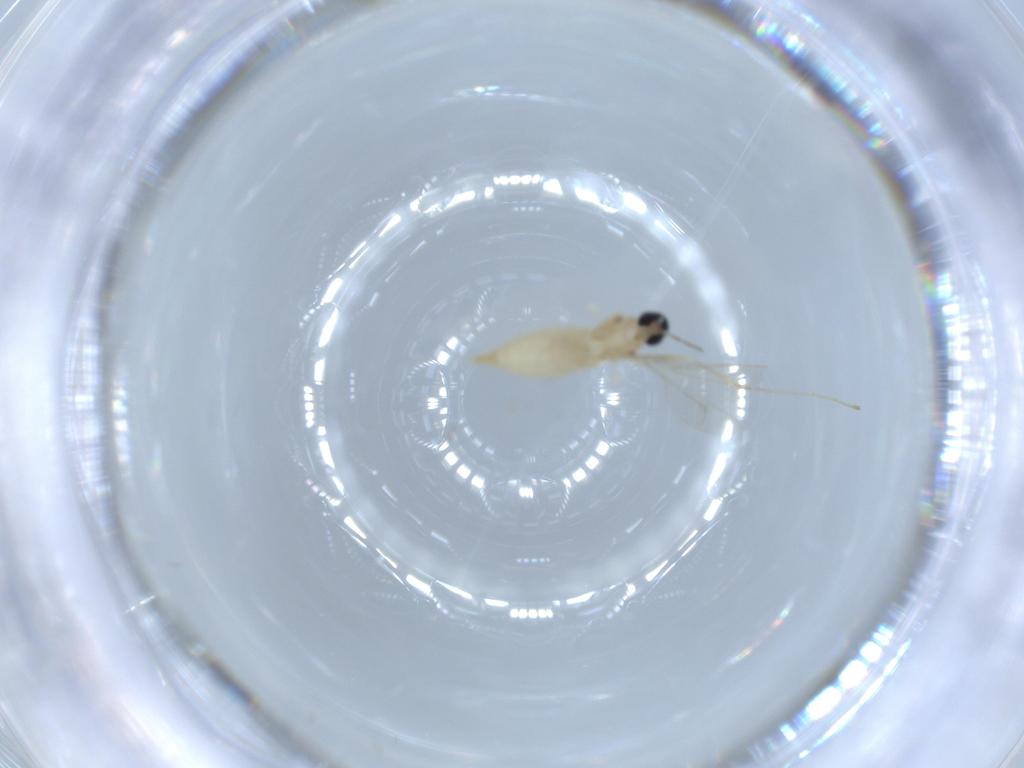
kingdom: Animalia
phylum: Arthropoda
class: Insecta
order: Diptera
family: Cecidomyiidae
